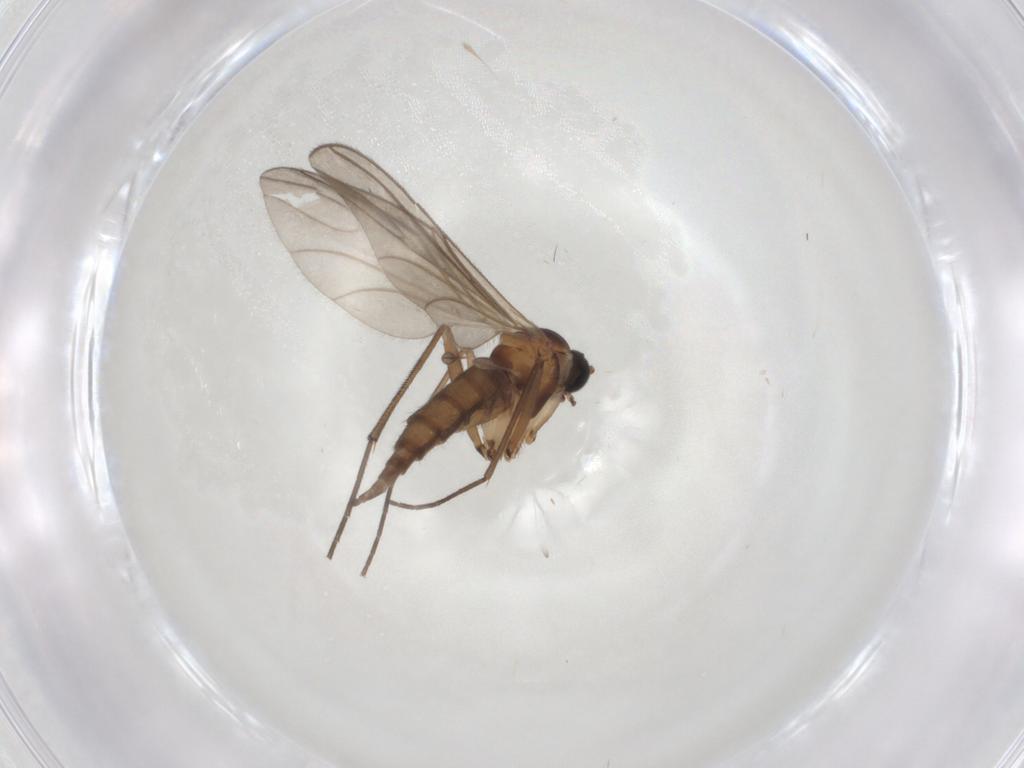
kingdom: Animalia
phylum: Arthropoda
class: Insecta
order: Diptera
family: Sciaridae
